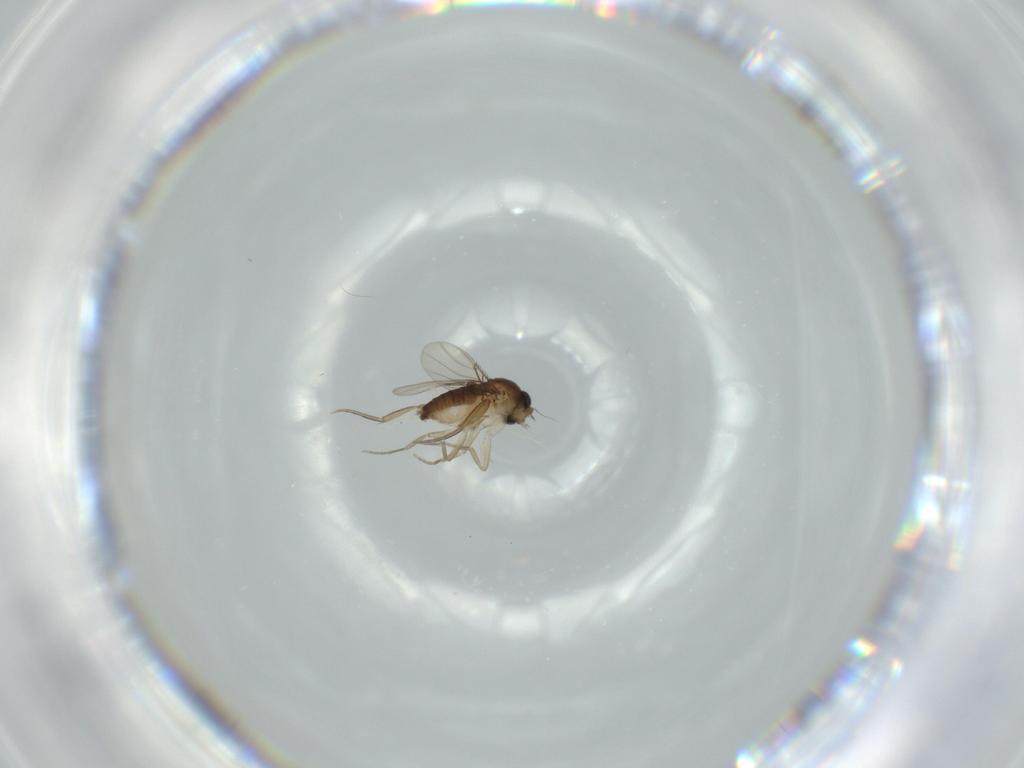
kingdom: Animalia
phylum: Arthropoda
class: Insecta
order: Diptera
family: Phoridae
